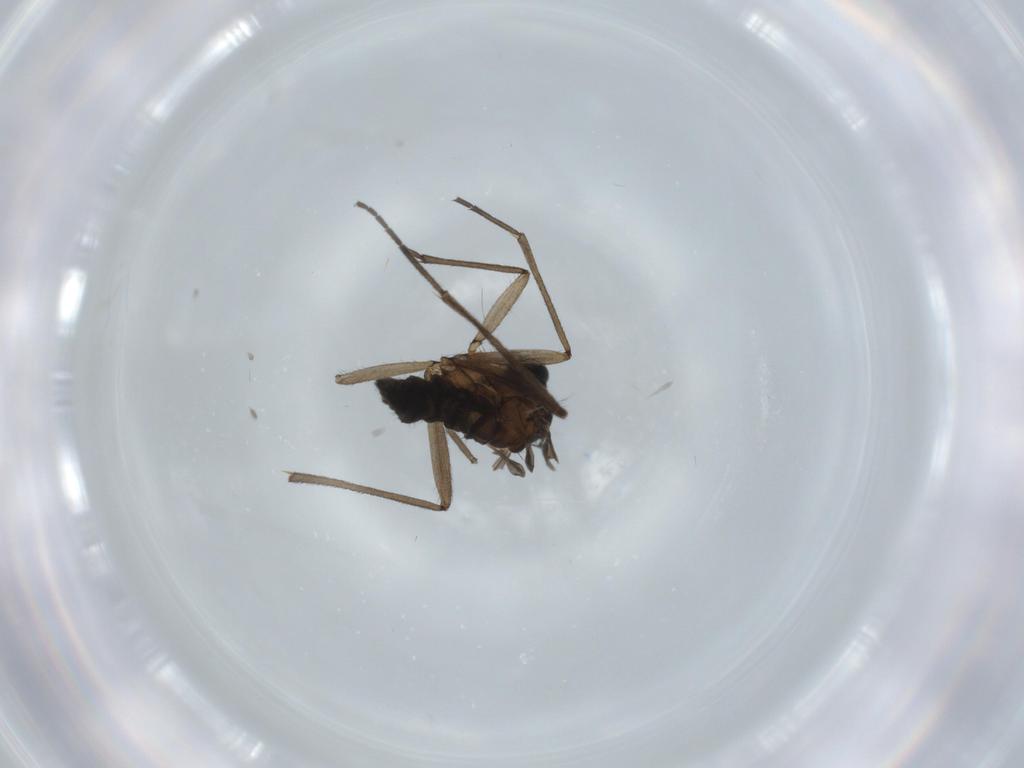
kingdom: Animalia
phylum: Arthropoda
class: Insecta
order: Diptera
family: Sciaridae
